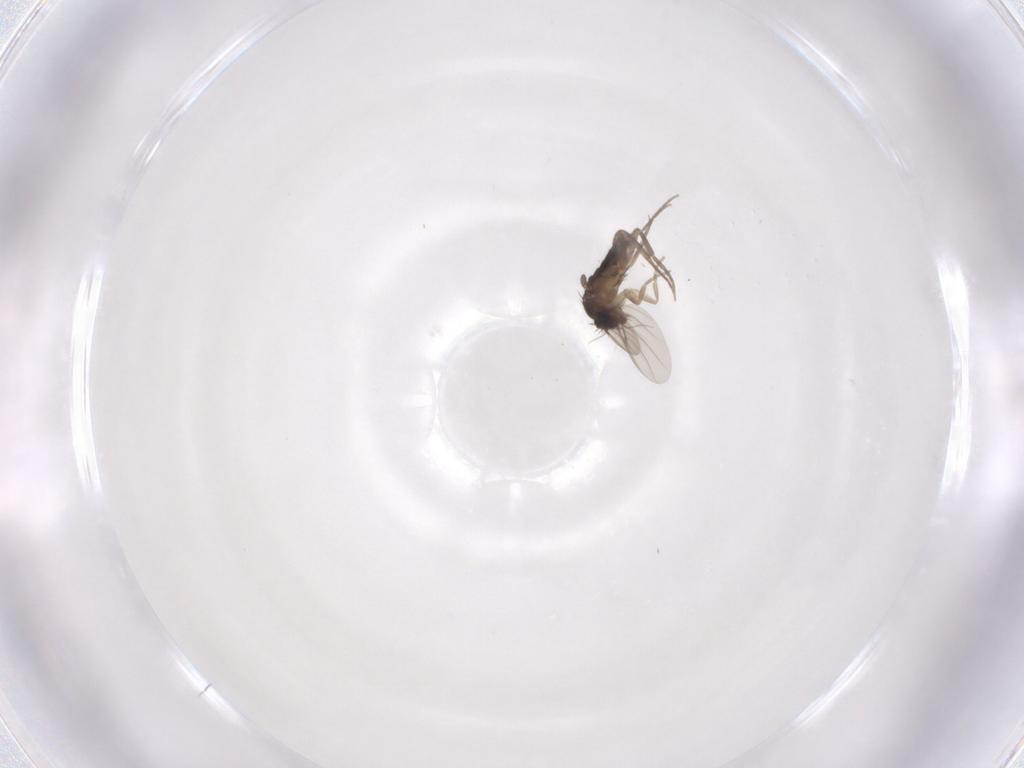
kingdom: Animalia
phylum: Arthropoda
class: Insecta
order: Diptera
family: Phoridae
